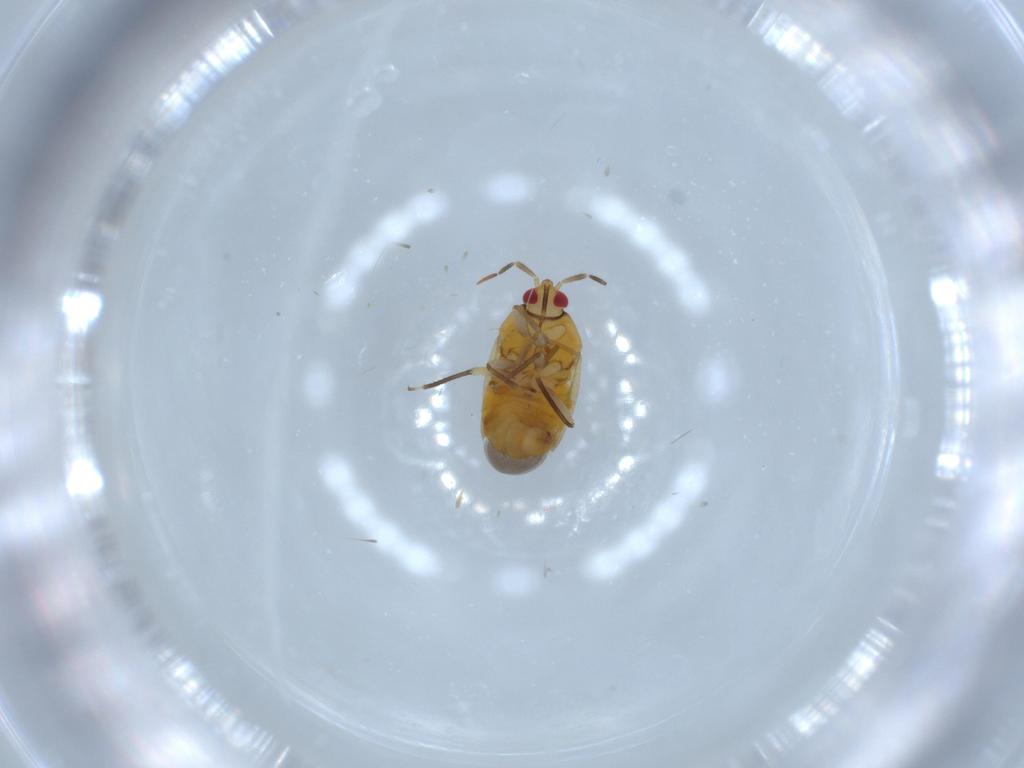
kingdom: Animalia
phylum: Arthropoda
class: Insecta
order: Hemiptera
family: Anthocoridae
